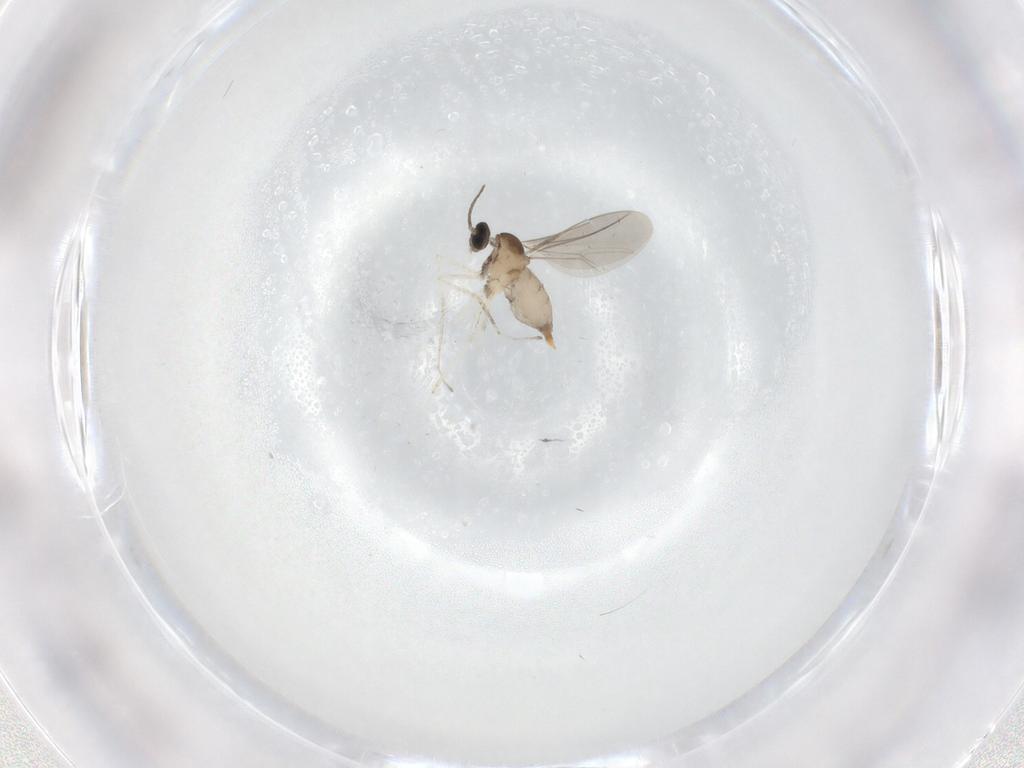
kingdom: Animalia
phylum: Arthropoda
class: Insecta
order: Diptera
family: Cecidomyiidae
